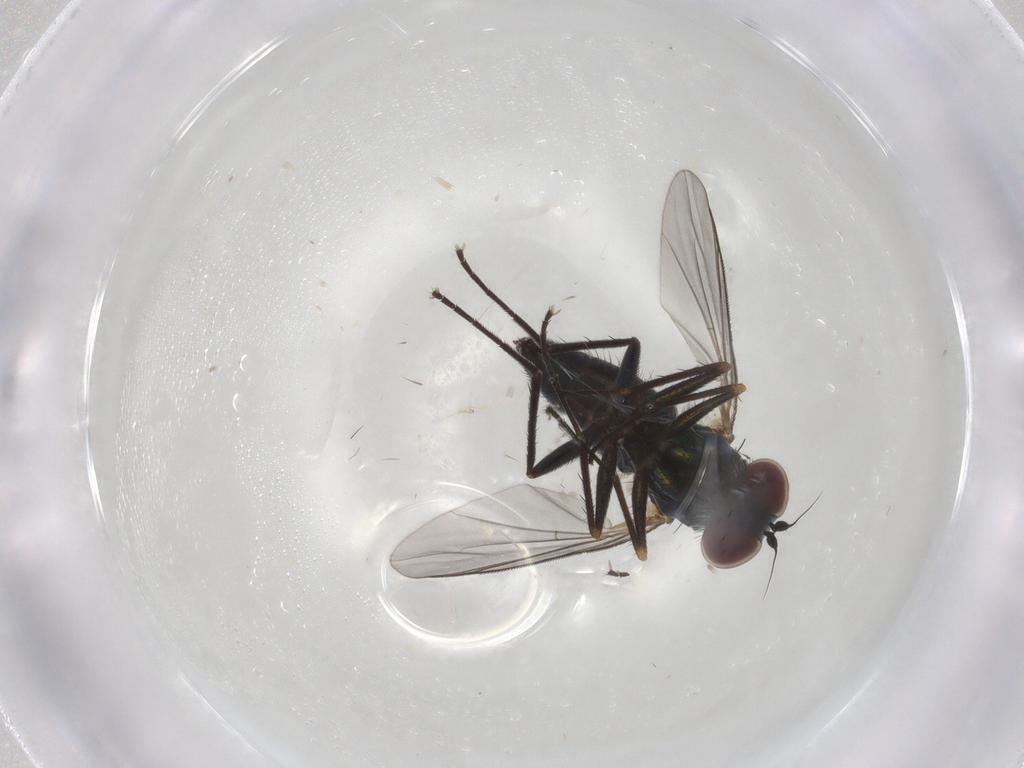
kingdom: Animalia
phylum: Arthropoda
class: Insecta
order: Diptera
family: Dolichopodidae
